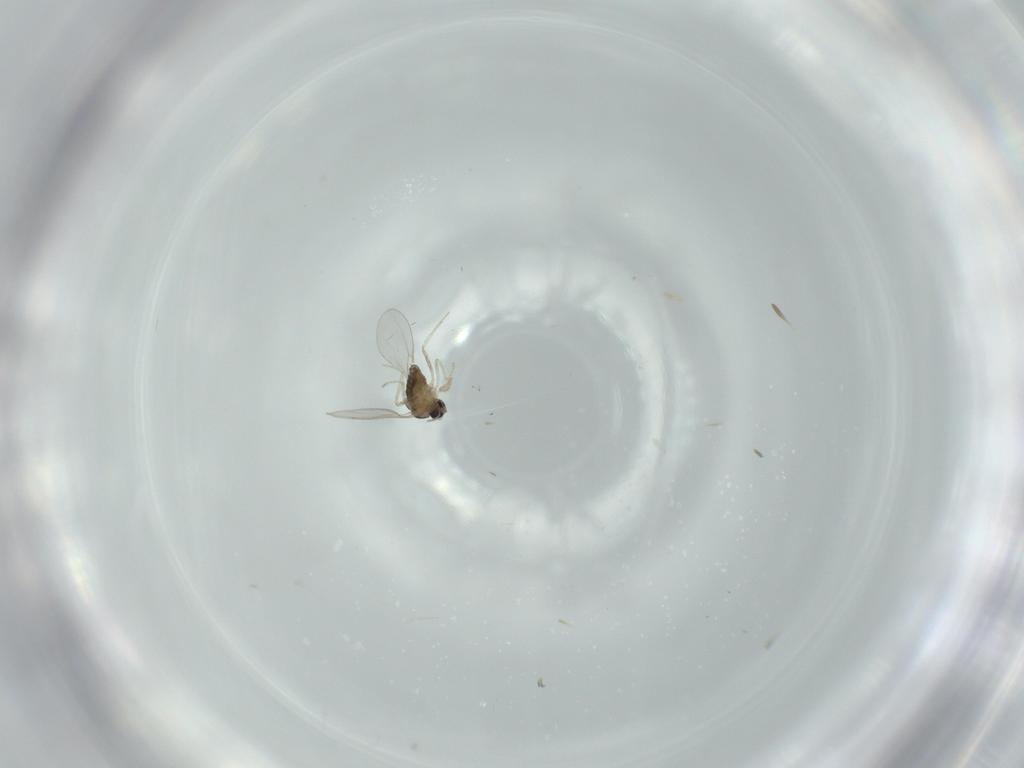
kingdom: Animalia
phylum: Arthropoda
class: Insecta
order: Diptera
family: Cecidomyiidae
